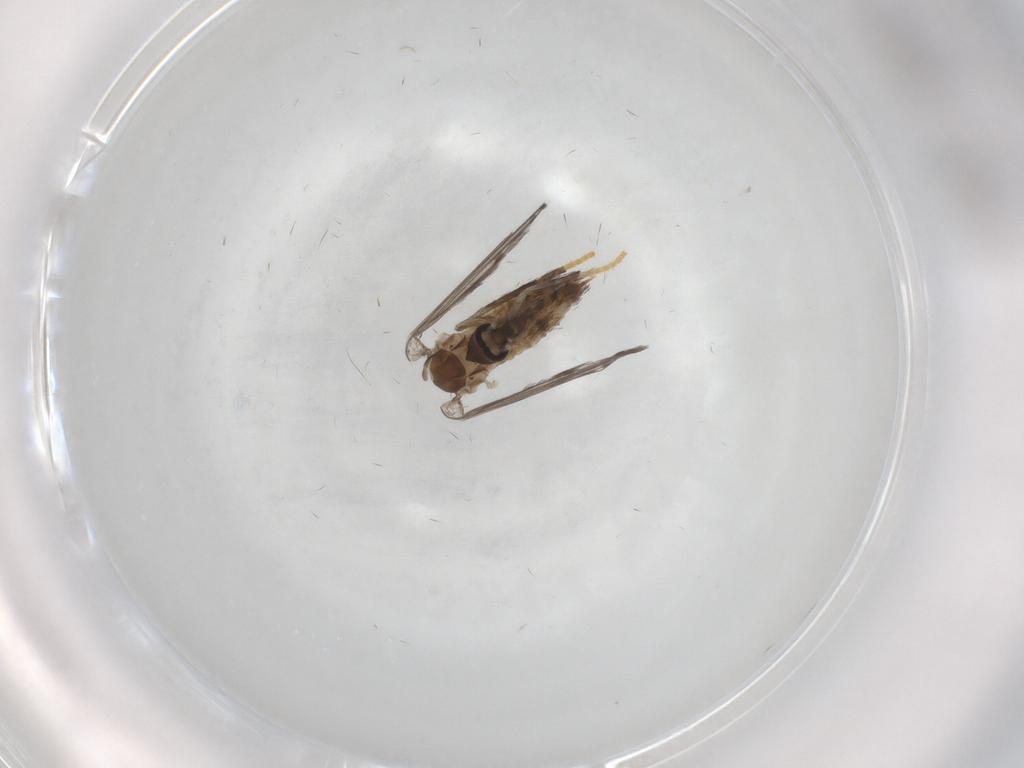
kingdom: Animalia
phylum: Arthropoda
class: Insecta
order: Diptera
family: Psychodidae
